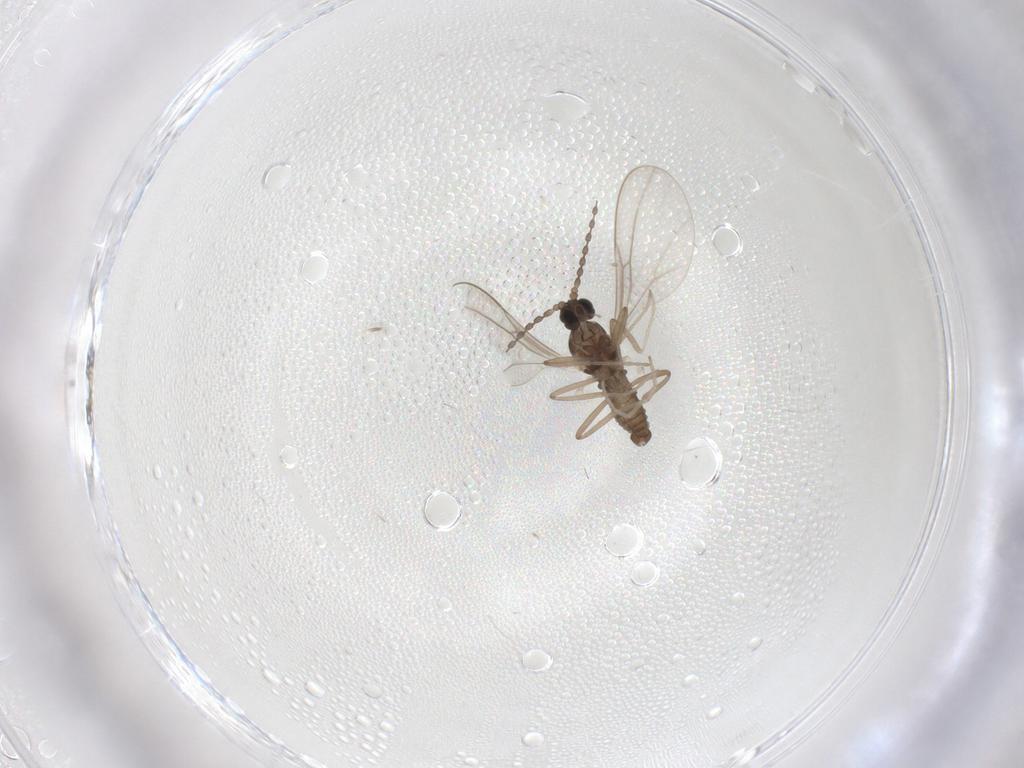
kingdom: Animalia
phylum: Arthropoda
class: Insecta
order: Diptera
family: Cecidomyiidae
